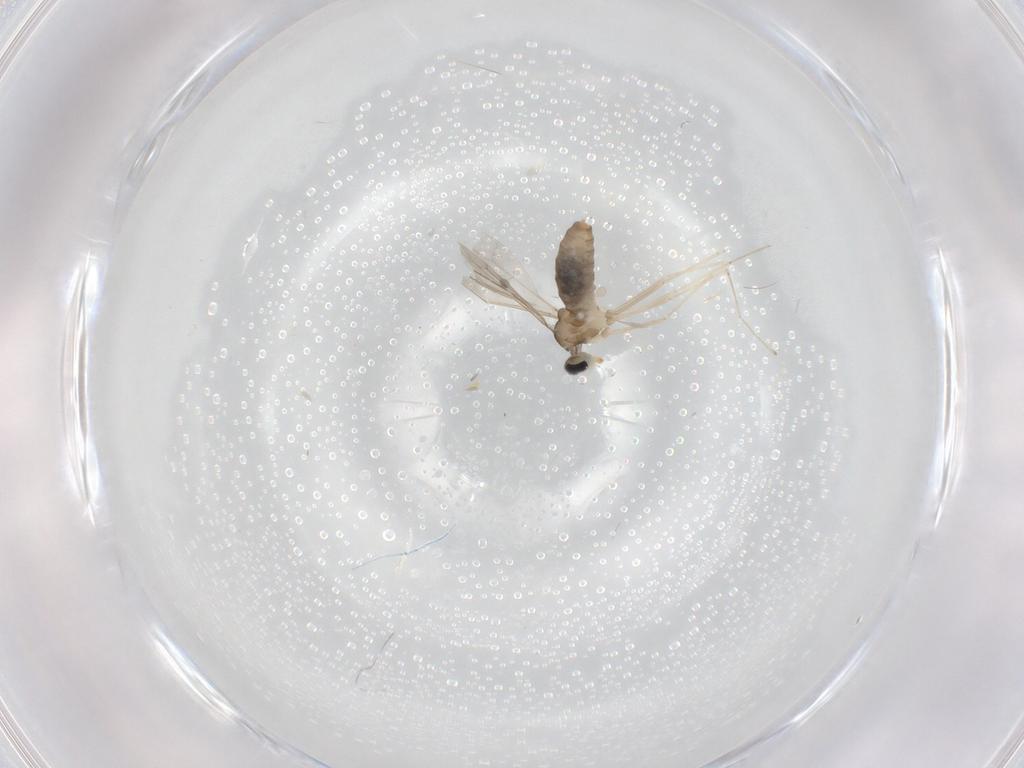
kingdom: Animalia
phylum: Arthropoda
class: Insecta
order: Diptera
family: Cecidomyiidae
